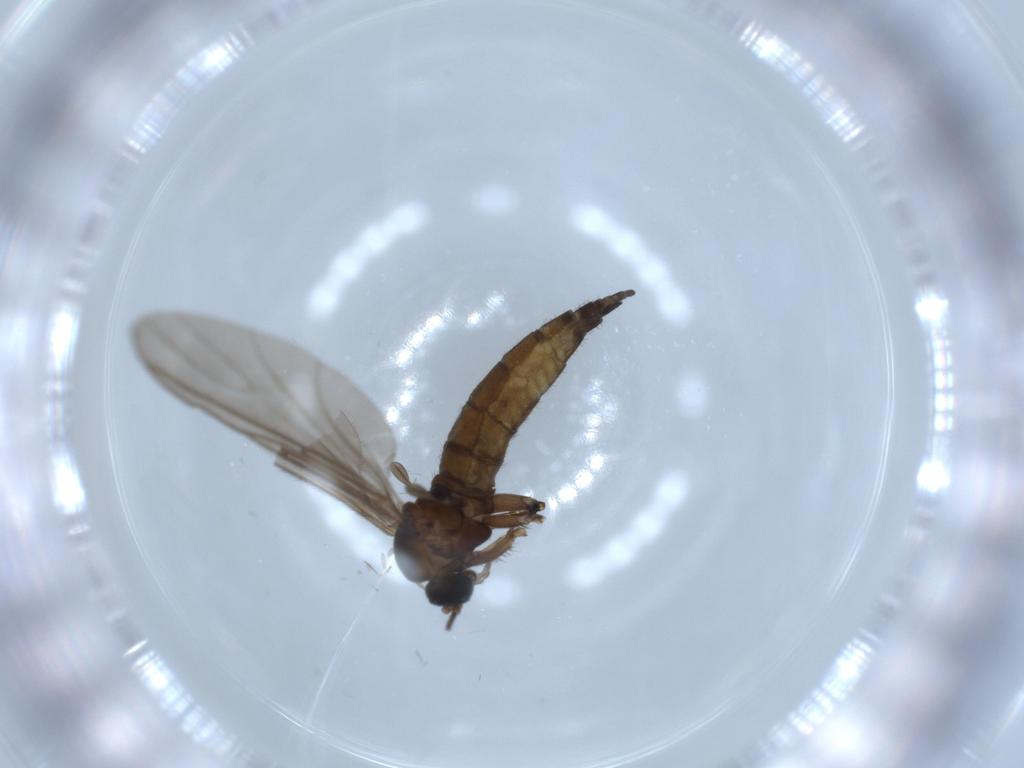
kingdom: Animalia
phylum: Arthropoda
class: Insecta
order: Diptera
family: Sciaridae
